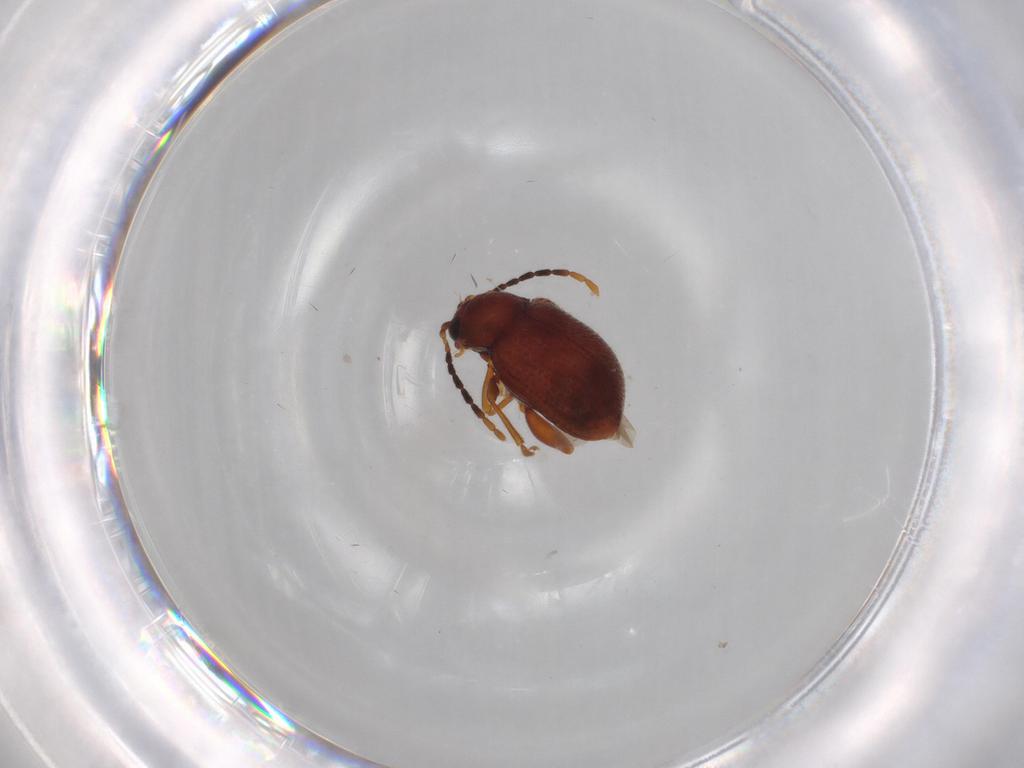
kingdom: Animalia
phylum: Arthropoda
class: Insecta
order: Coleoptera
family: Chrysomelidae
